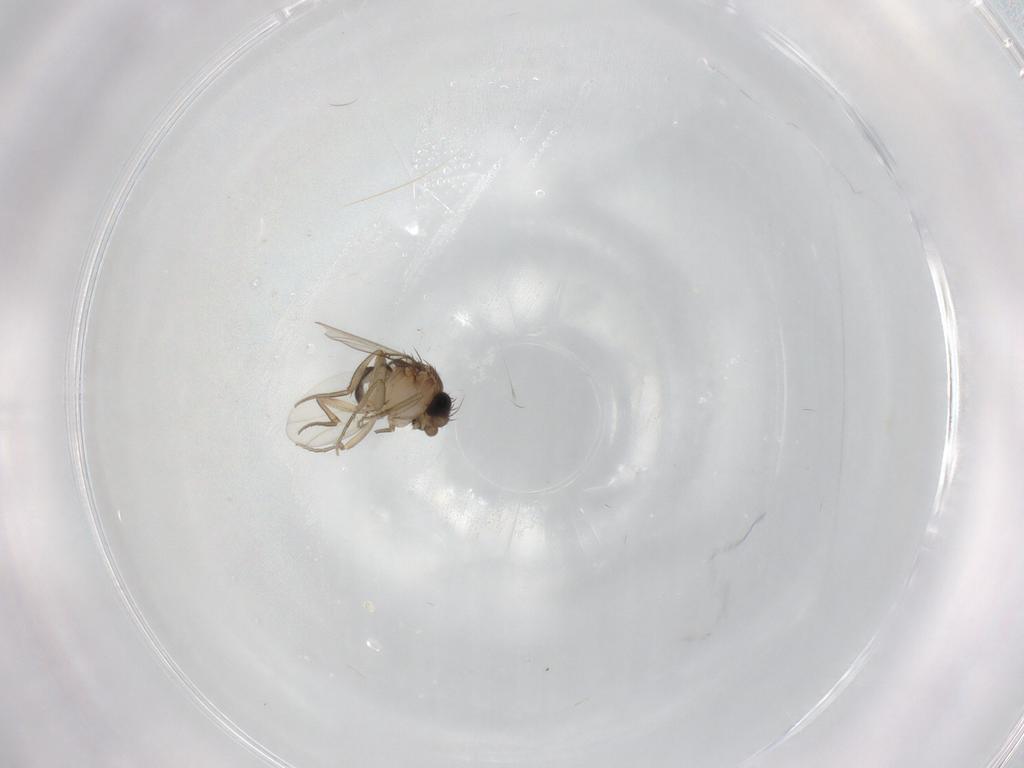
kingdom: Animalia
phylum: Arthropoda
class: Insecta
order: Diptera
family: Phoridae
